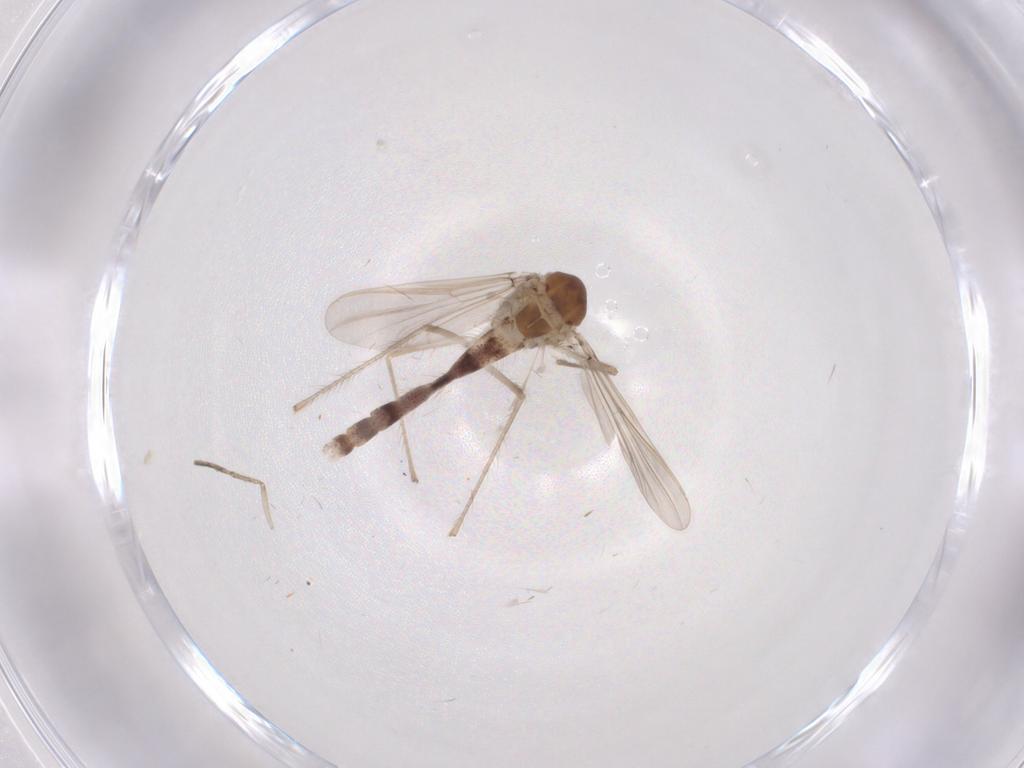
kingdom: Animalia
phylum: Arthropoda
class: Insecta
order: Diptera
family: Chironomidae
